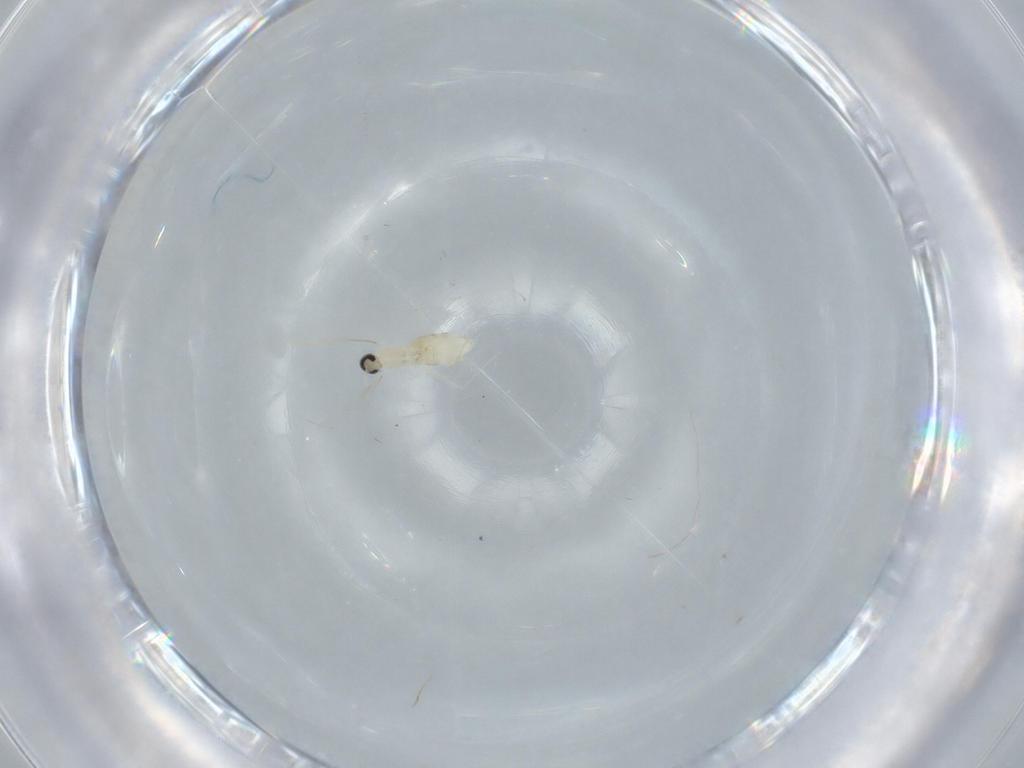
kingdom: Animalia
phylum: Arthropoda
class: Insecta
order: Diptera
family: Cecidomyiidae
